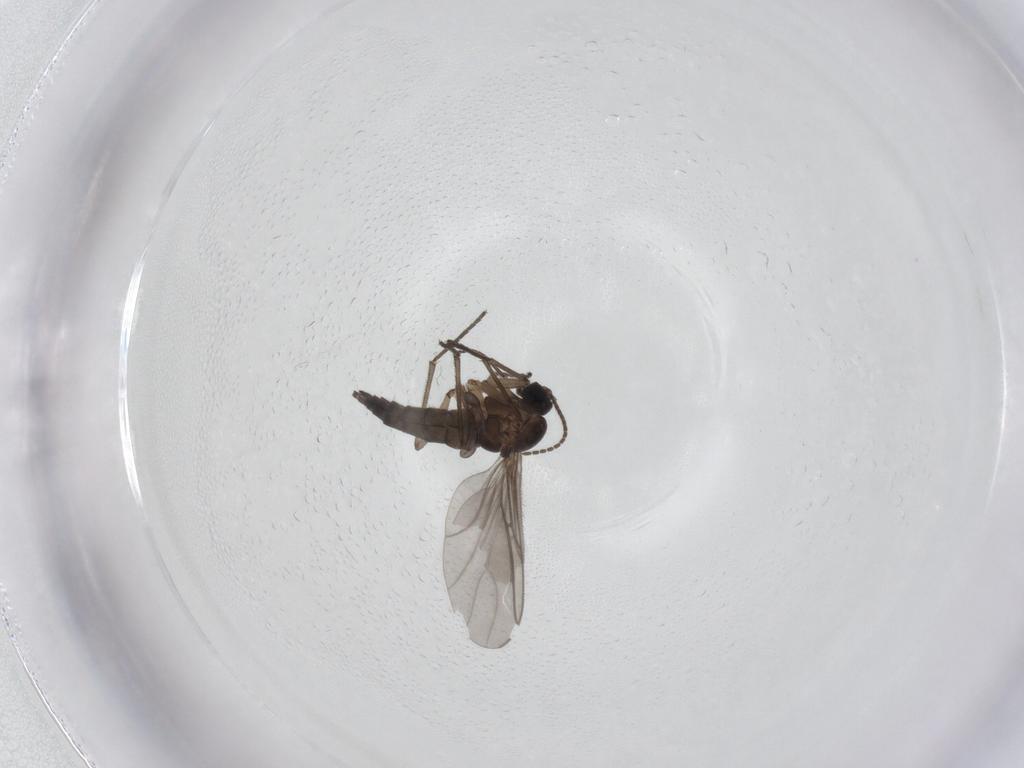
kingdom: Animalia
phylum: Arthropoda
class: Insecta
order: Diptera
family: Sciaridae
